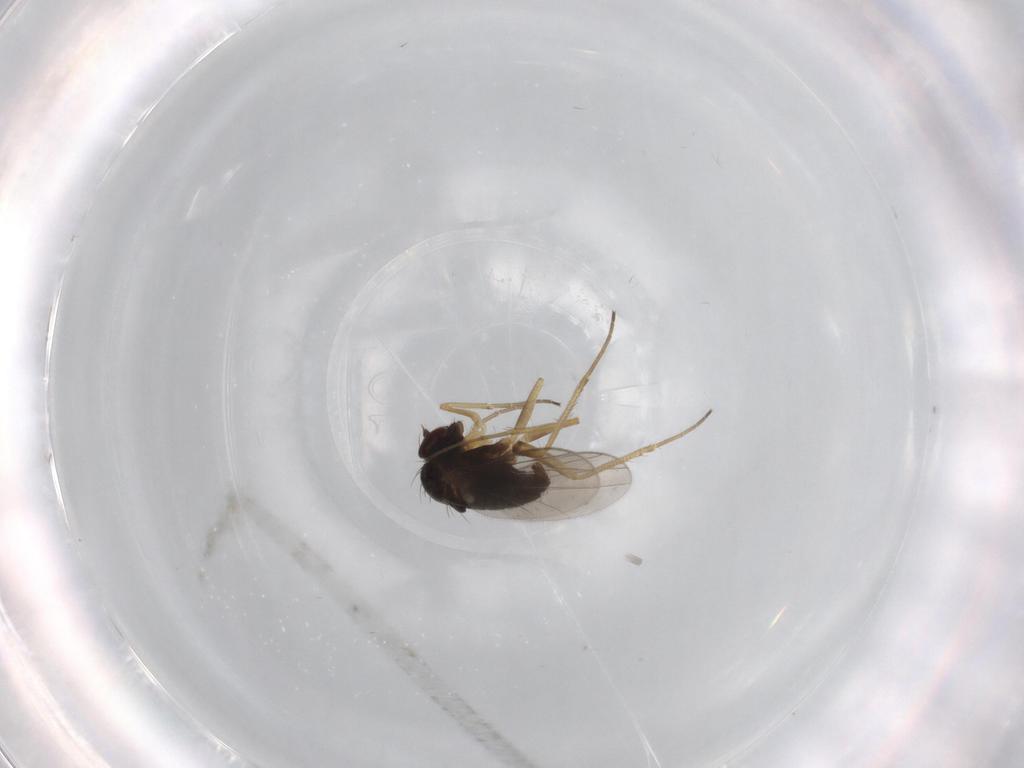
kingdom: Animalia
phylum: Arthropoda
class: Insecta
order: Diptera
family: Dolichopodidae
